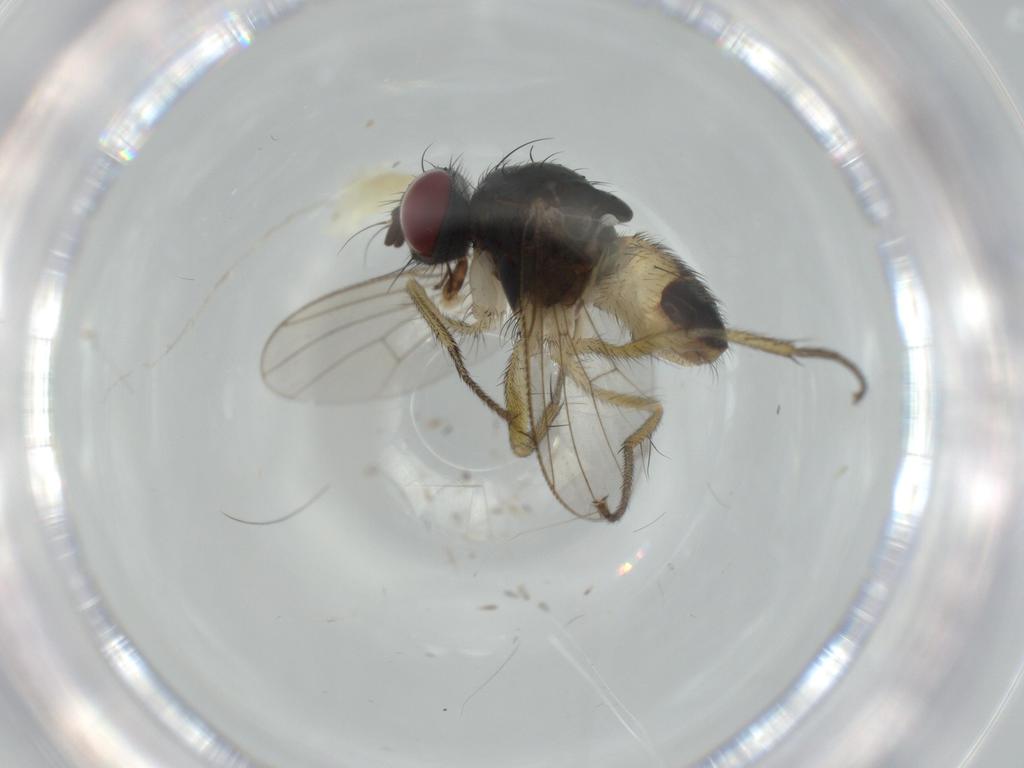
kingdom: Animalia
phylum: Arthropoda
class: Insecta
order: Diptera
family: Muscidae
